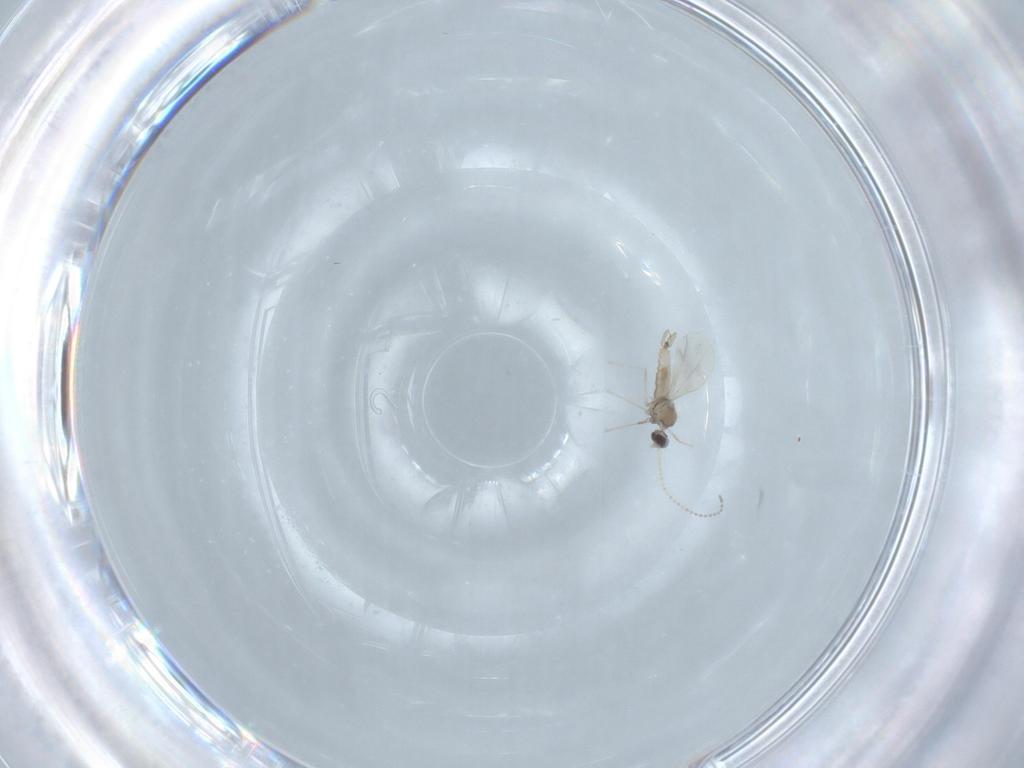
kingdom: Animalia
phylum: Arthropoda
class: Insecta
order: Diptera
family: Cecidomyiidae
